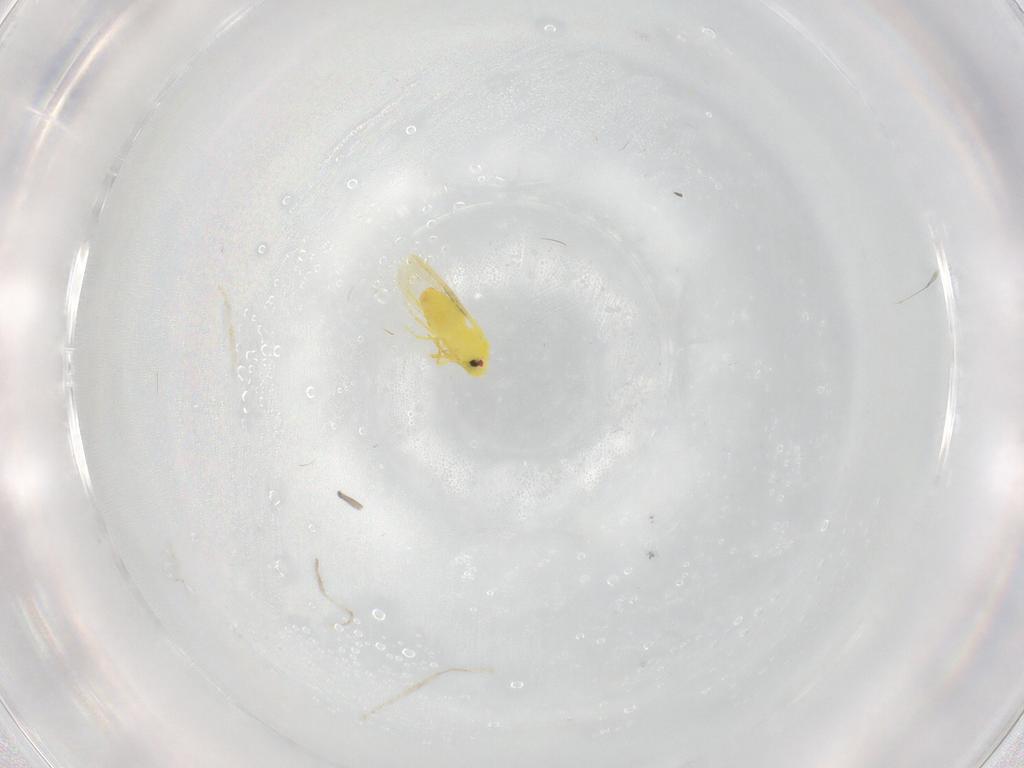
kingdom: Animalia
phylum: Arthropoda
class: Insecta
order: Hemiptera
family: Aleyrodidae
